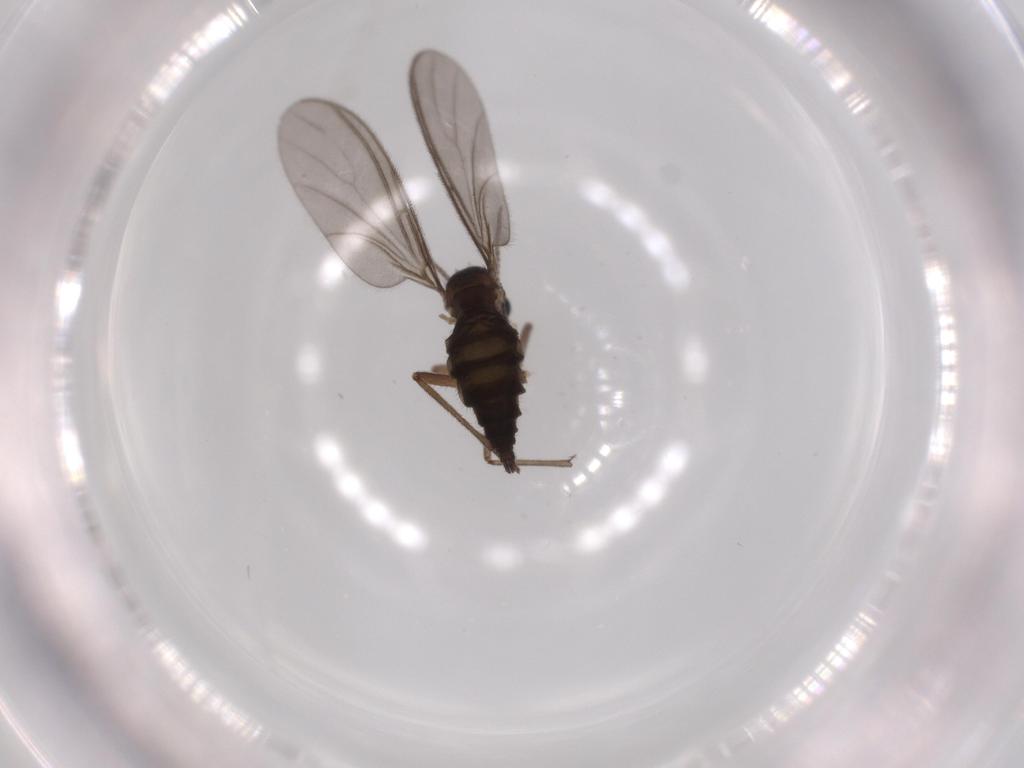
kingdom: Animalia
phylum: Arthropoda
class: Insecta
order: Diptera
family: Sciaridae
